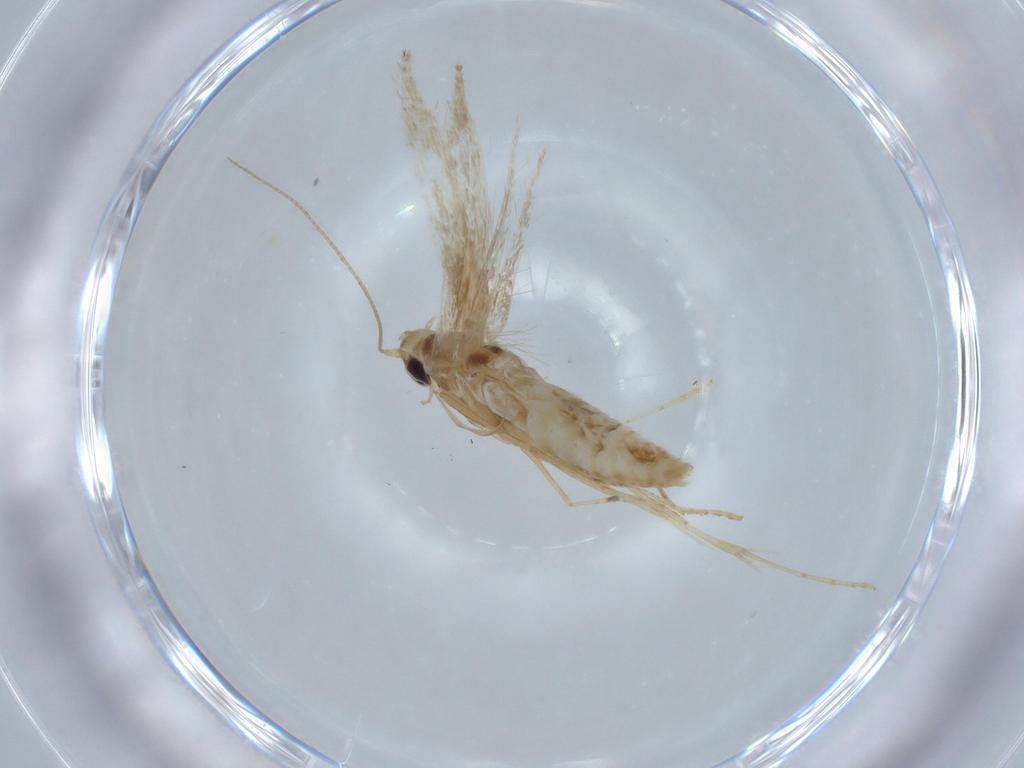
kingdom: Animalia
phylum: Arthropoda
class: Insecta
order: Lepidoptera
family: Gracillariidae
